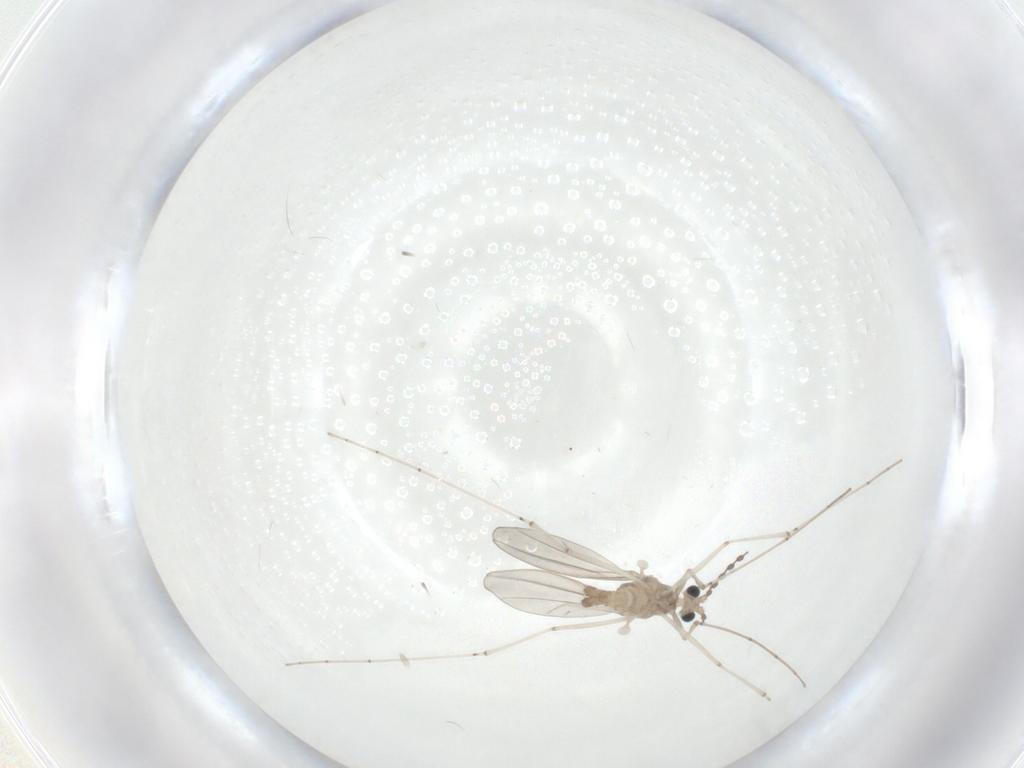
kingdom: Animalia
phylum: Arthropoda
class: Insecta
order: Diptera
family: Cecidomyiidae
